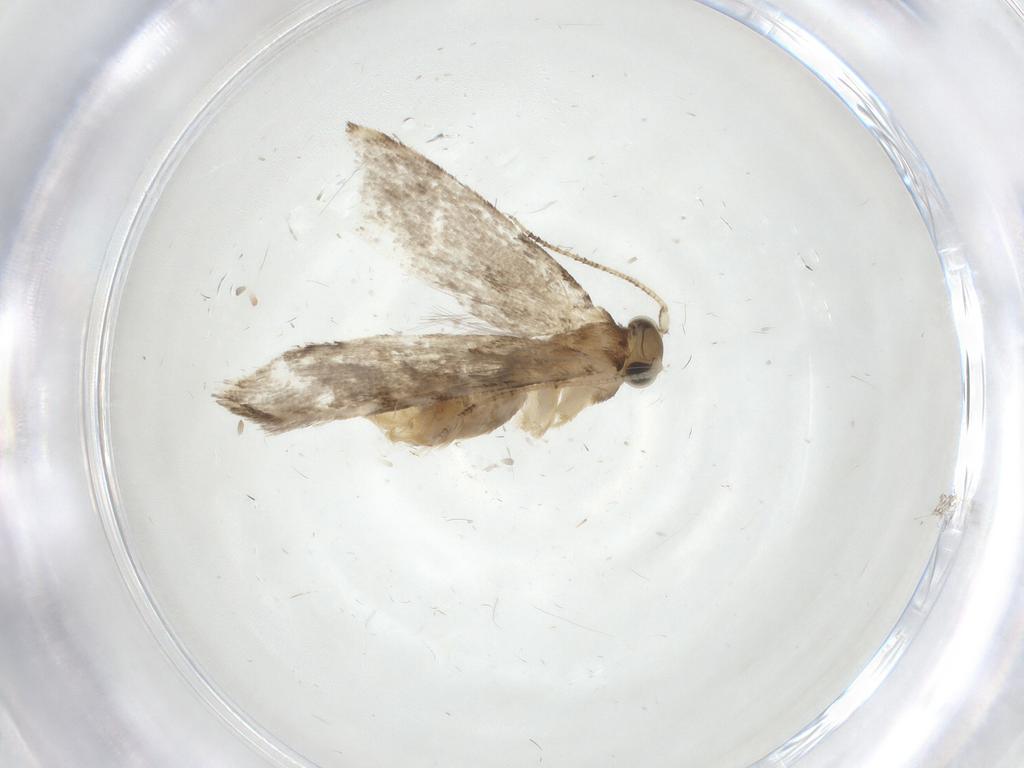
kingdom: Animalia
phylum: Arthropoda
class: Insecta
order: Lepidoptera
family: Tineidae
